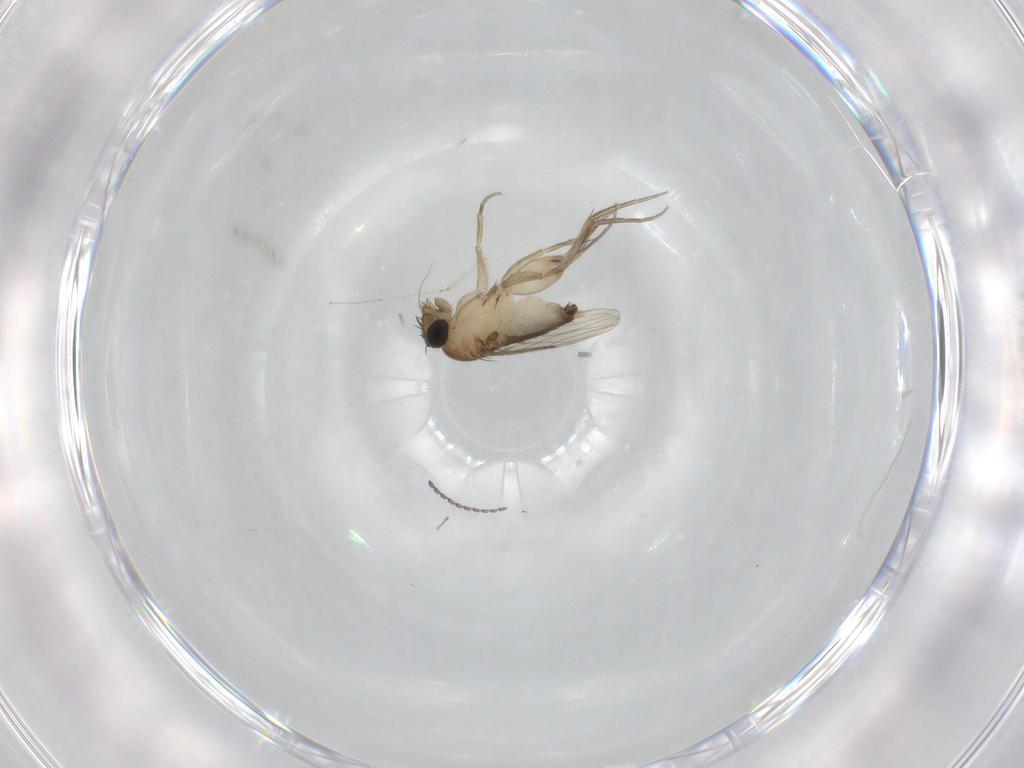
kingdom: Animalia
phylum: Arthropoda
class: Insecta
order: Diptera
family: Phoridae
